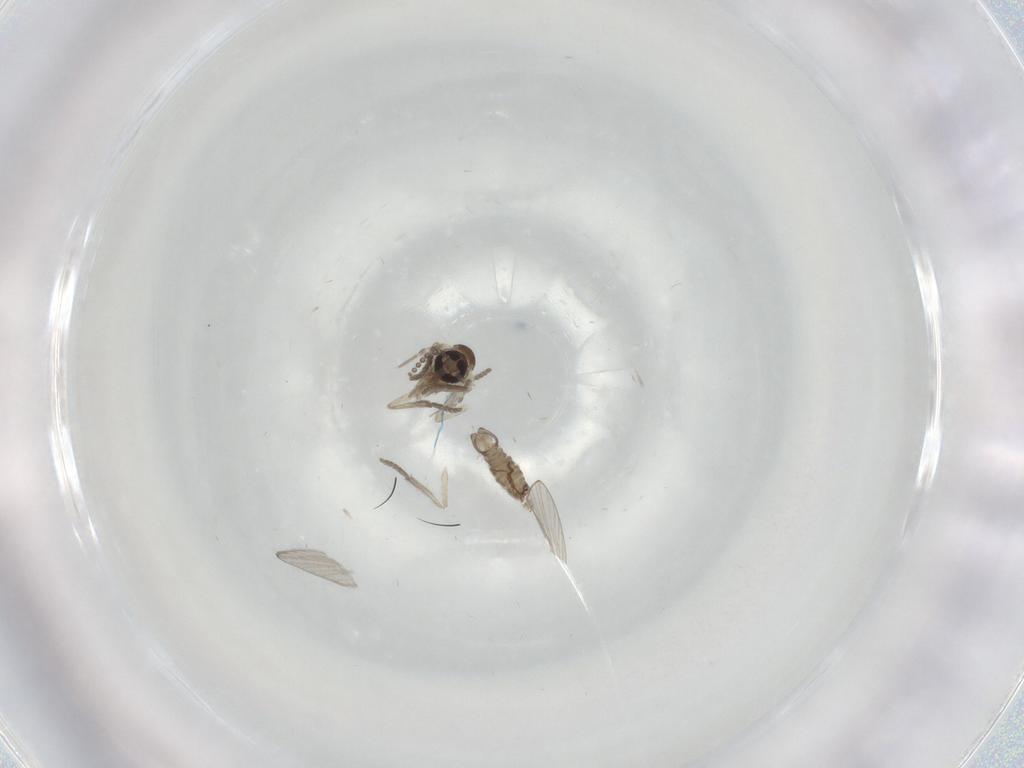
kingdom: Animalia
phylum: Arthropoda
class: Insecta
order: Diptera
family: Psychodidae
